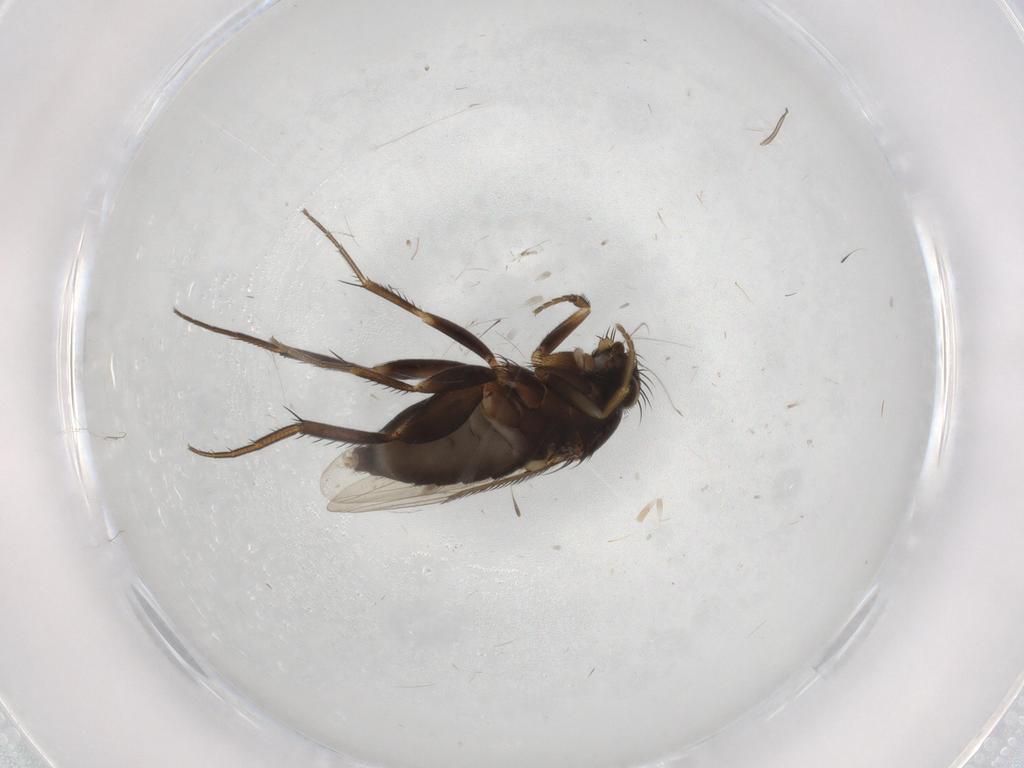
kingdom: Animalia
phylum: Arthropoda
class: Insecta
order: Diptera
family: Phoridae
